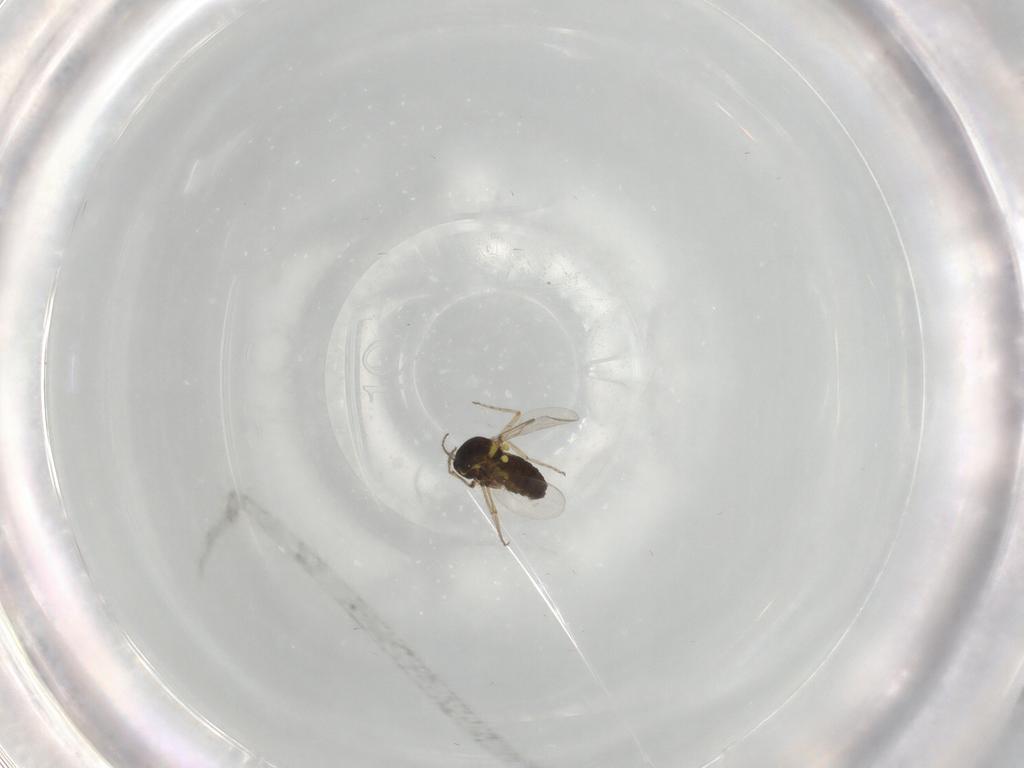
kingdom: Animalia
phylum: Arthropoda
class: Insecta
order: Diptera
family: Ceratopogonidae
